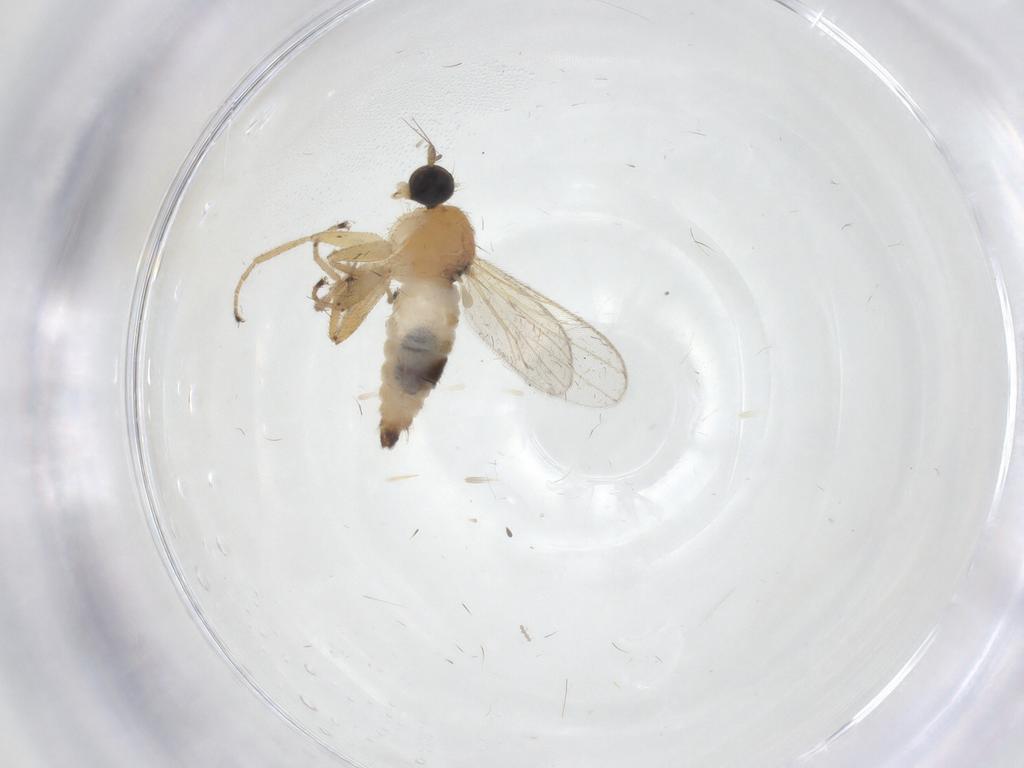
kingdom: Animalia
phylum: Arthropoda
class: Insecta
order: Diptera
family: Hybotidae
